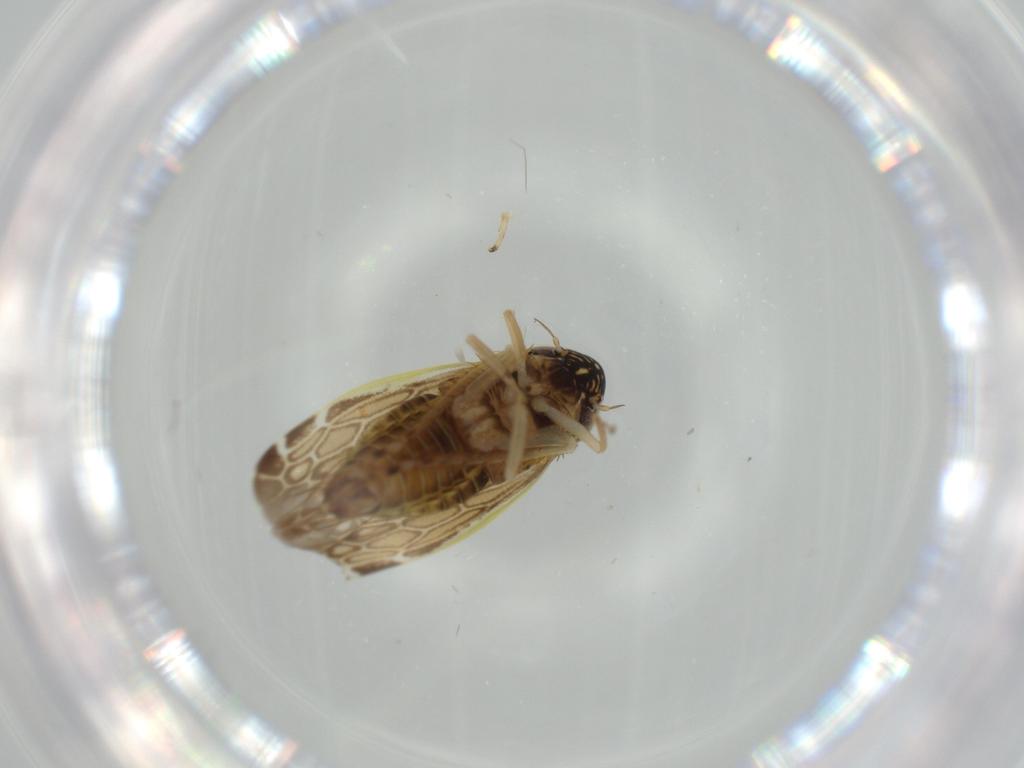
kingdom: Animalia
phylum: Arthropoda
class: Insecta
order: Hemiptera
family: Cicadellidae
